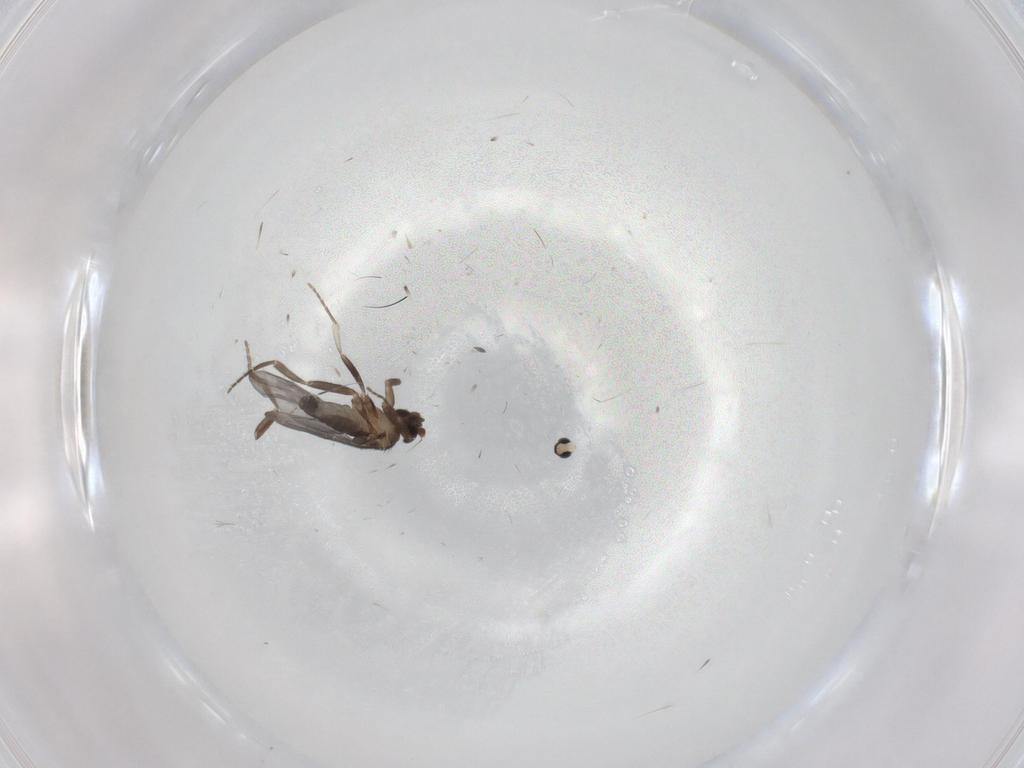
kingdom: Animalia
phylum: Arthropoda
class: Insecta
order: Diptera
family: Phoridae
